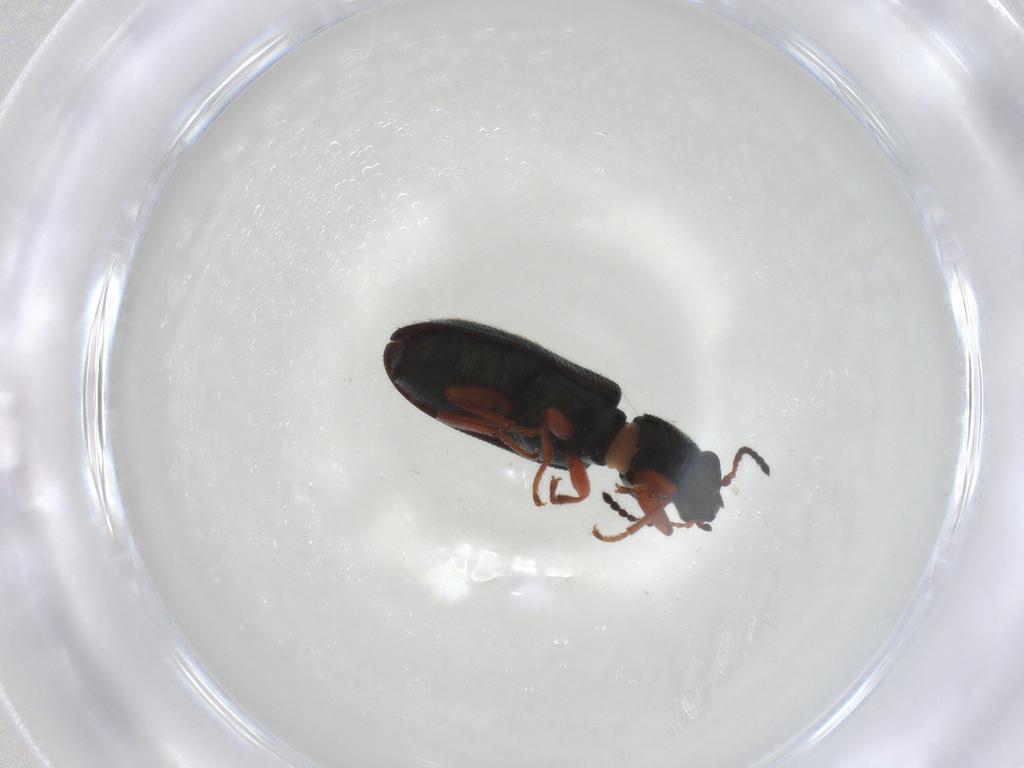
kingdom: Animalia
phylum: Arthropoda
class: Insecta
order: Coleoptera
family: Melyridae
